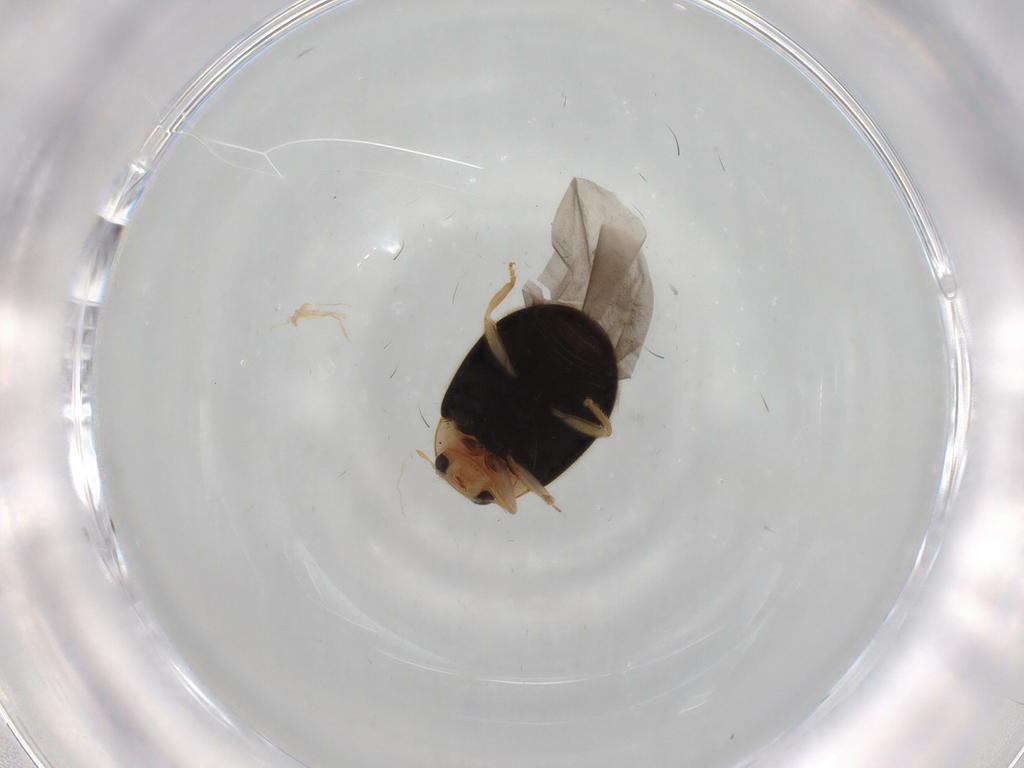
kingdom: Animalia
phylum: Arthropoda
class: Insecta
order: Coleoptera
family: Coccinellidae
